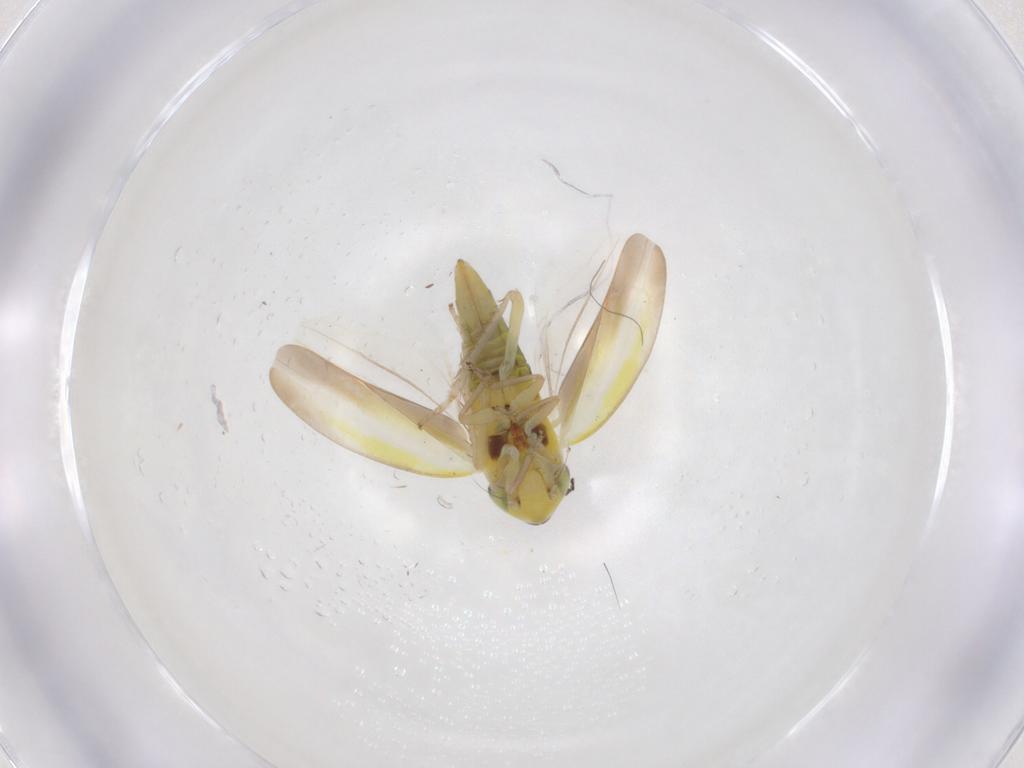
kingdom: Animalia
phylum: Arthropoda
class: Insecta
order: Hemiptera
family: Cicadellidae
